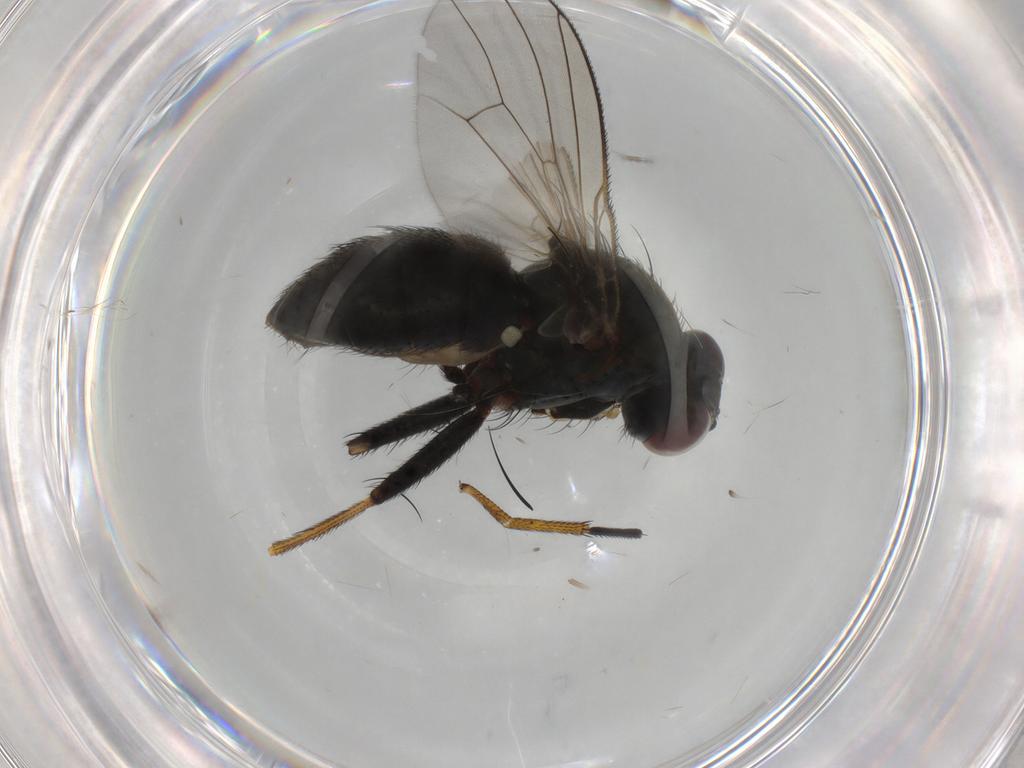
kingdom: Animalia
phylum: Arthropoda
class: Insecta
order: Diptera
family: Muscidae
